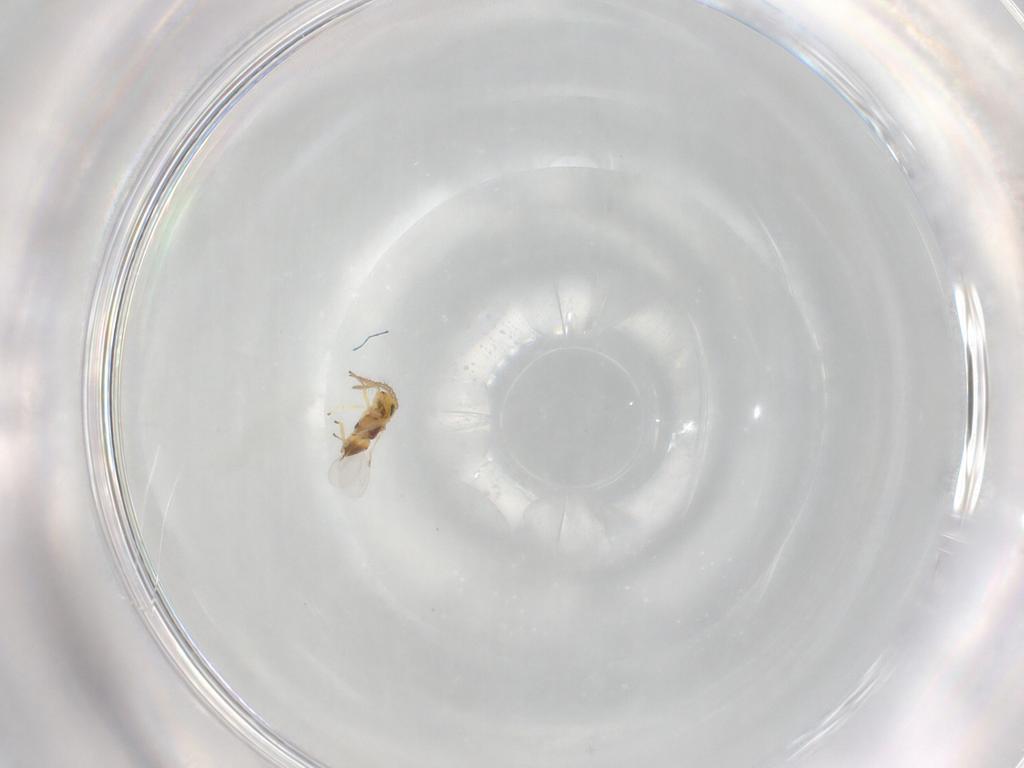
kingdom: Animalia
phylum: Arthropoda
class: Insecta
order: Hymenoptera
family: Encyrtidae
